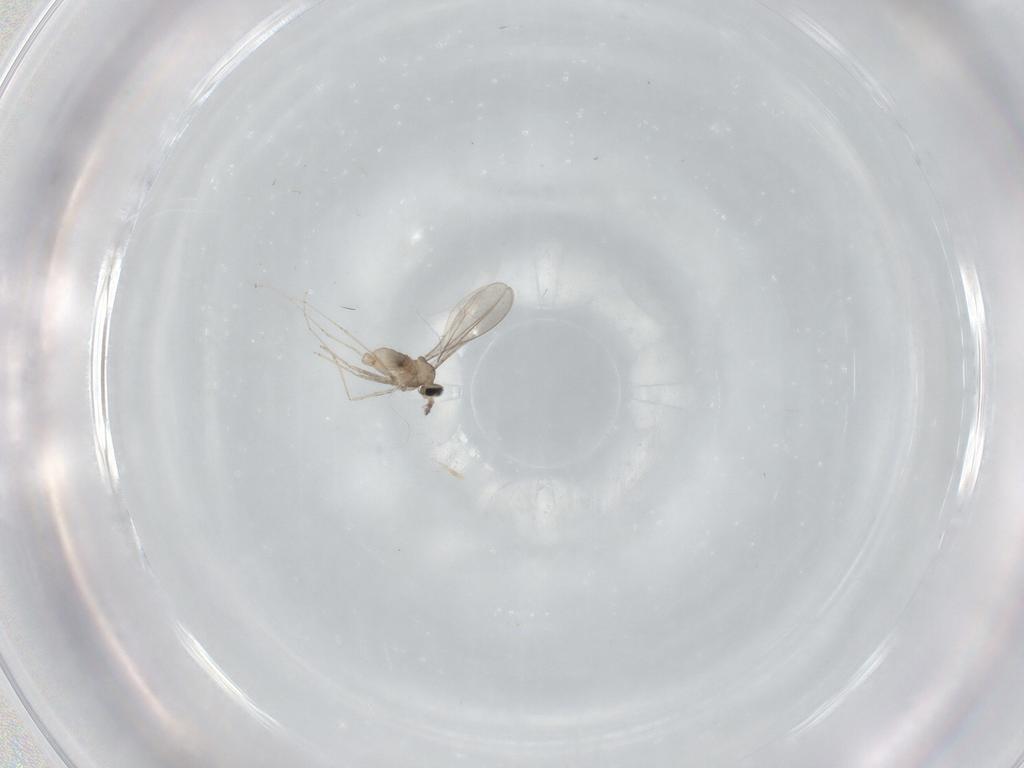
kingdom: Animalia
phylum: Arthropoda
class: Insecta
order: Diptera
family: Cecidomyiidae
